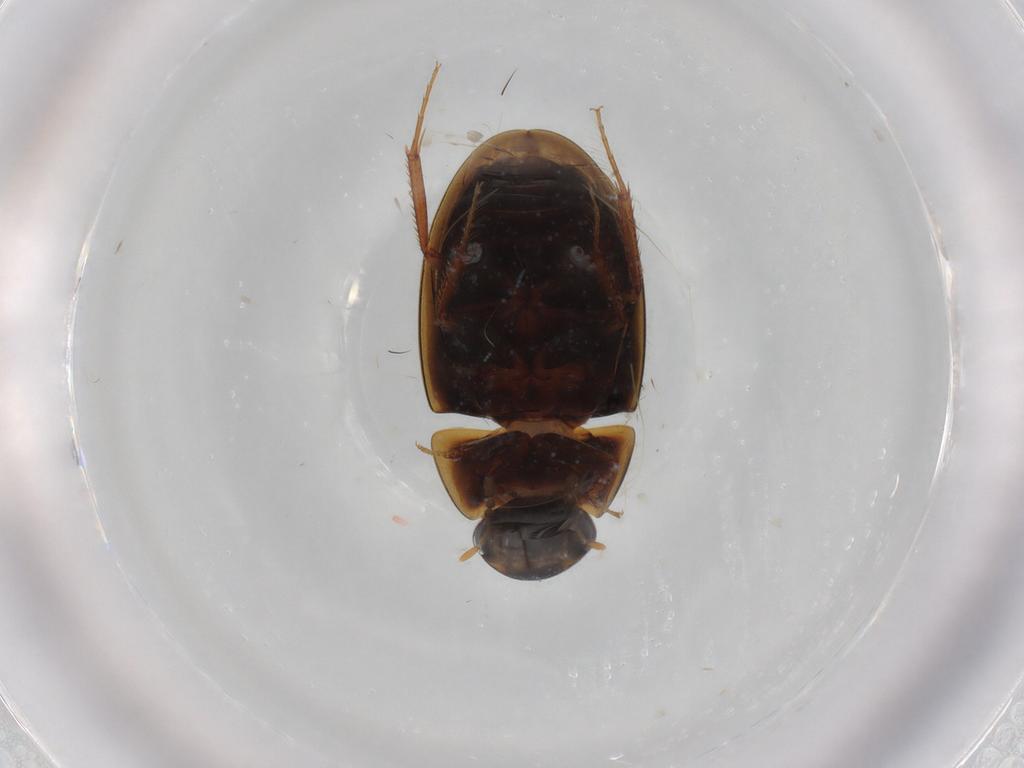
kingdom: Animalia
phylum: Arthropoda
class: Insecta
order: Coleoptera
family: Hydrophilidae
